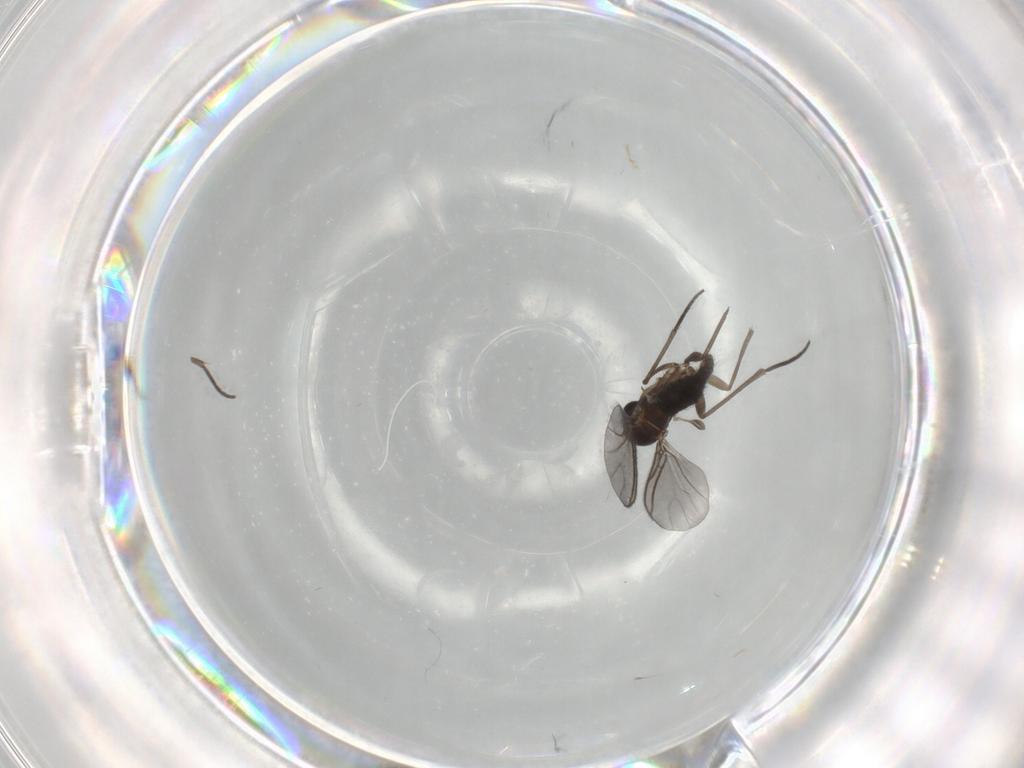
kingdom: Animalia
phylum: Arthropoda
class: Insecta
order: Diptera
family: Sciaridae
